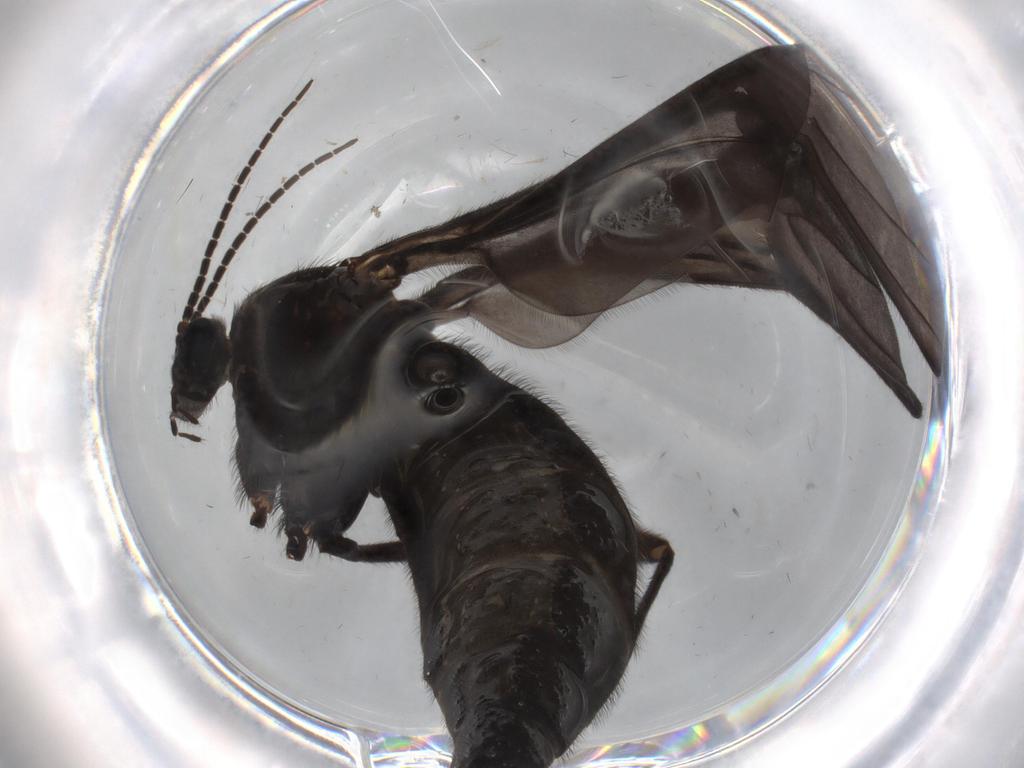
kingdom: Animalia
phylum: Arthropoda
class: Insecta
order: Diptera
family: Sciaridae
